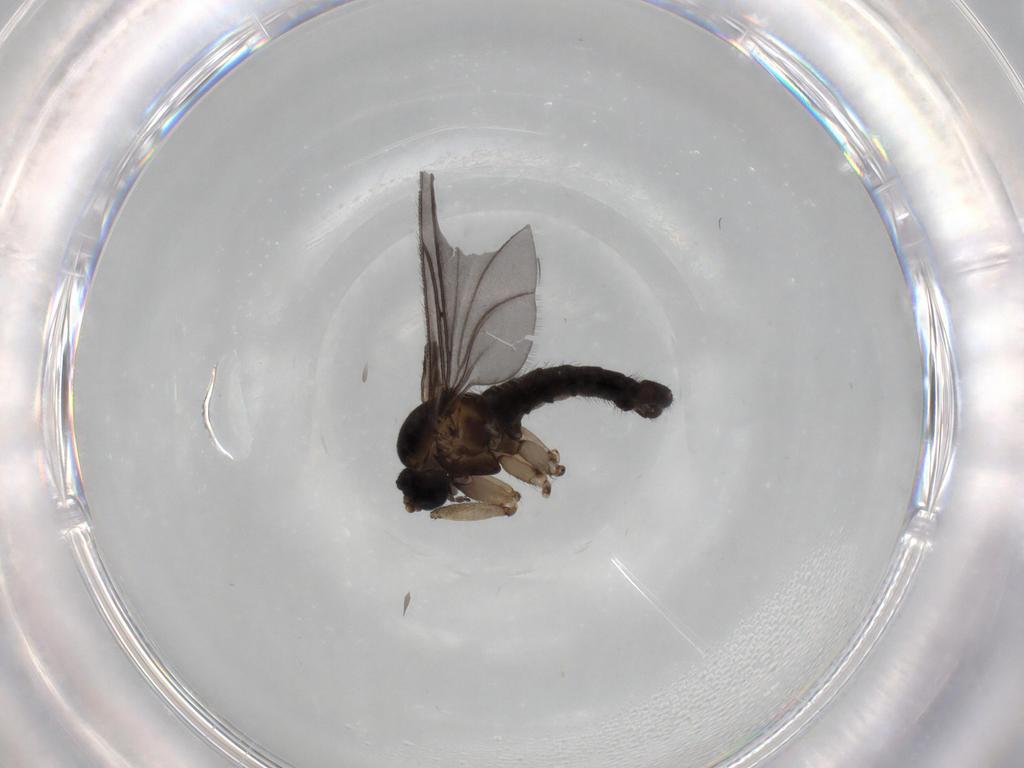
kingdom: Animalia
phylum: Arthropoda
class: Insecta
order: Diptera
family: Sciaridae
